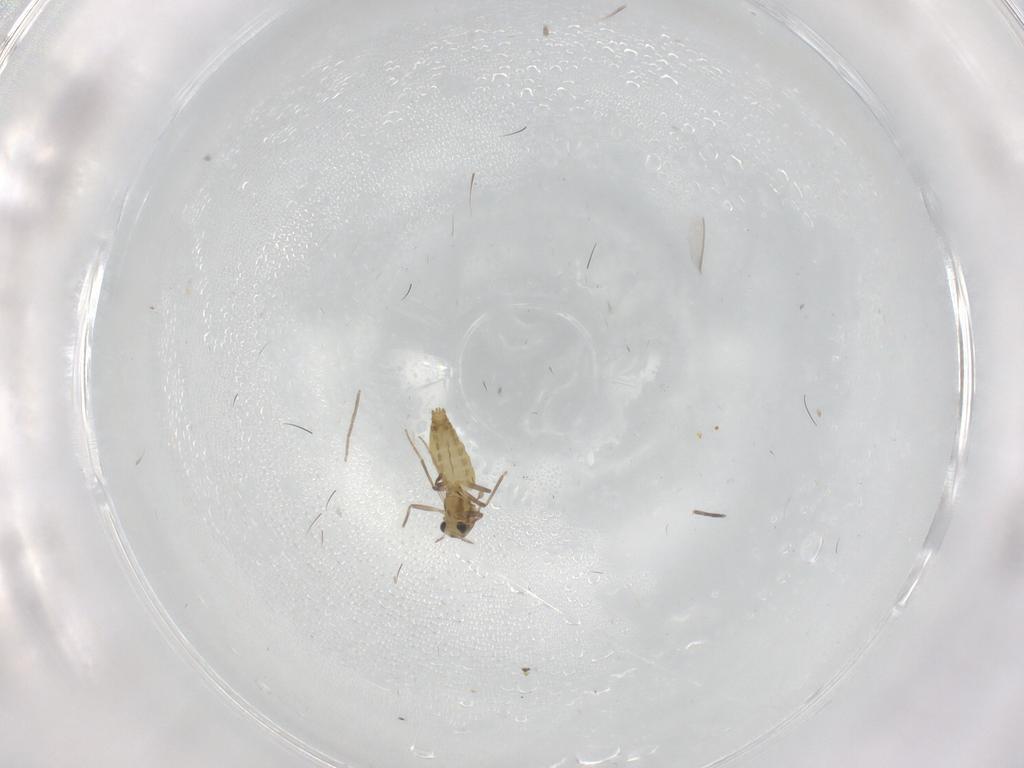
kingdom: Animalia
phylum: Arthropoda
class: Insecta
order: Diptera
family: Chironomidae
